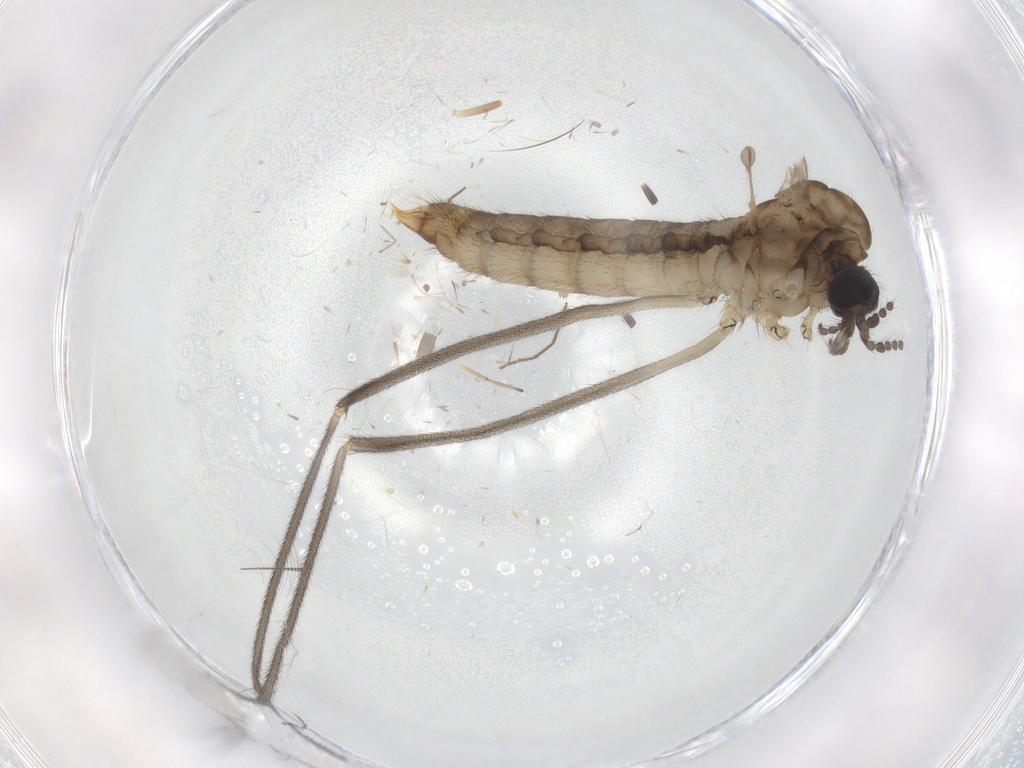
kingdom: Animalia
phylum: Arthropoda
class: Insecta
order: Diptera
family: Limoniidae
